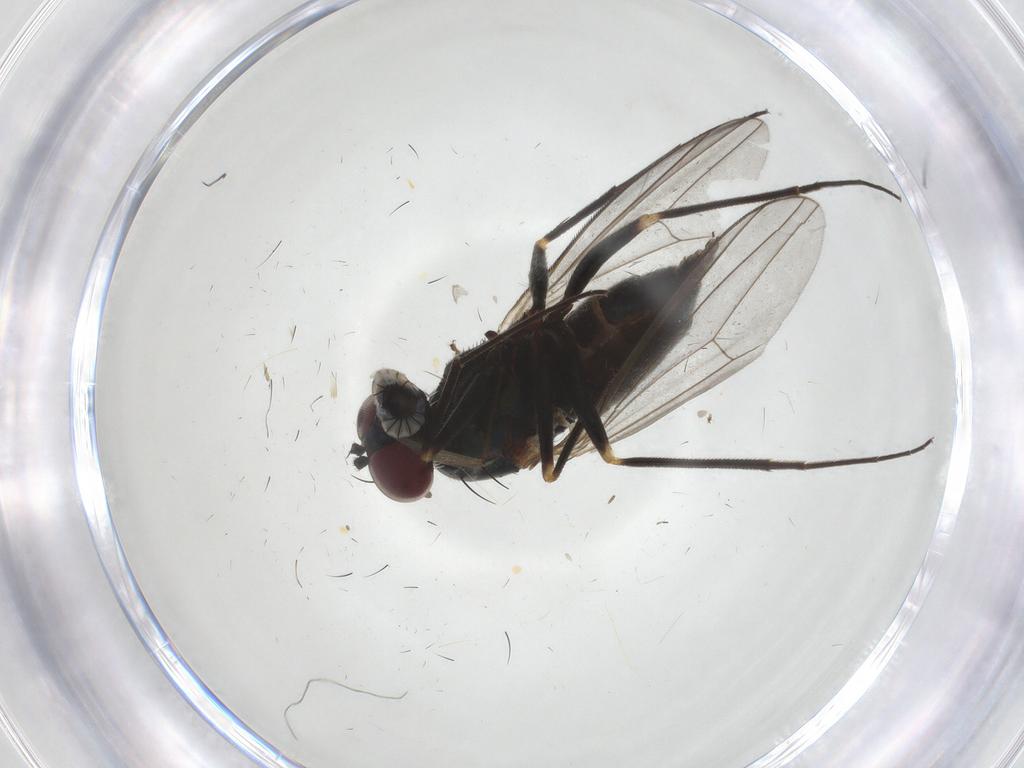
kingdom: Animalia
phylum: Arthropoda
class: Insecta
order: Diptera
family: Dolichopodidae
